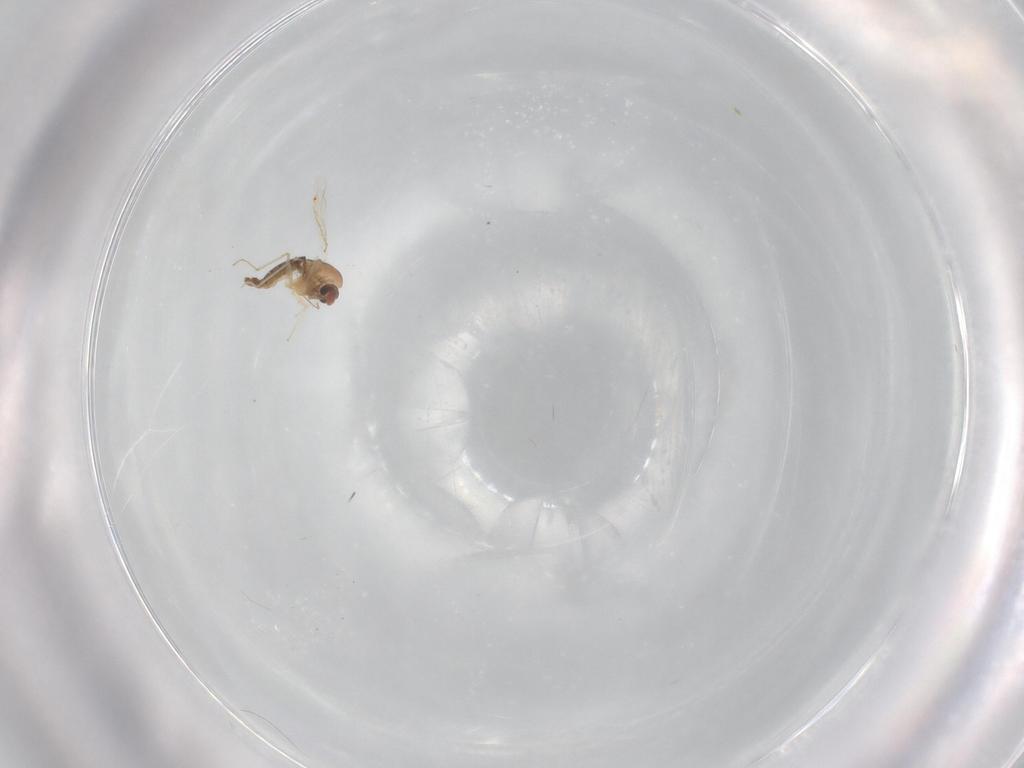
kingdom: Animalia
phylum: Arthropoda
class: Insecta
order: Diptera
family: Chironomidae
